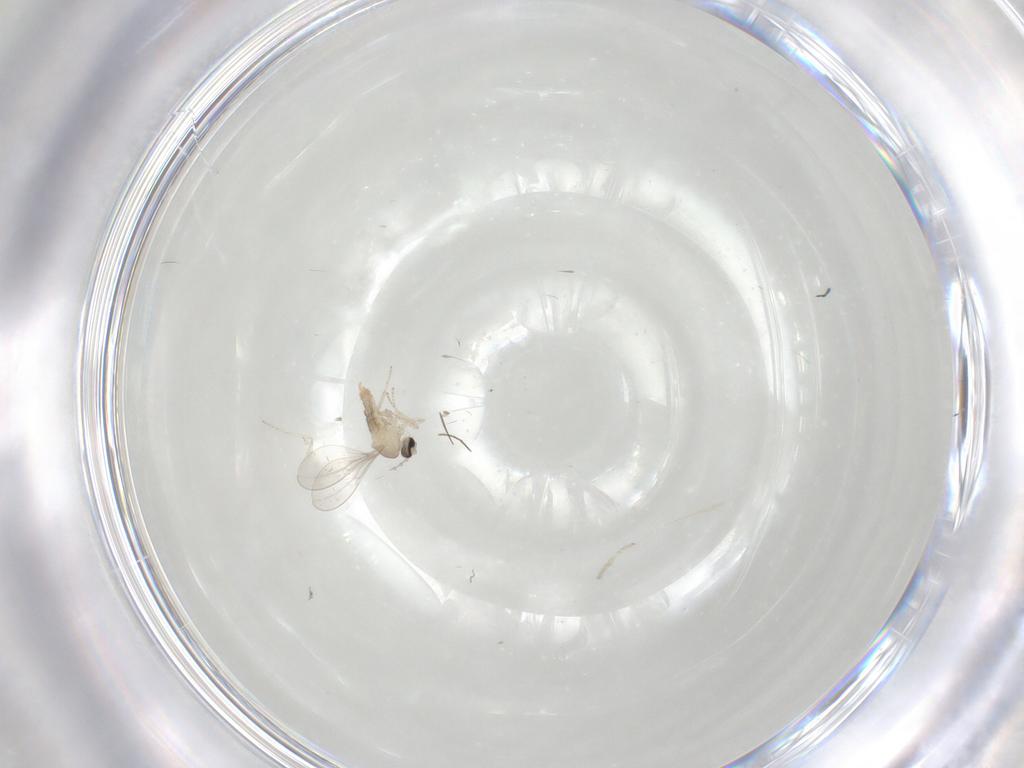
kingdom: Animalia
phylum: Arthropoda
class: Insecta
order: Diptera
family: Cecidomyiidae
